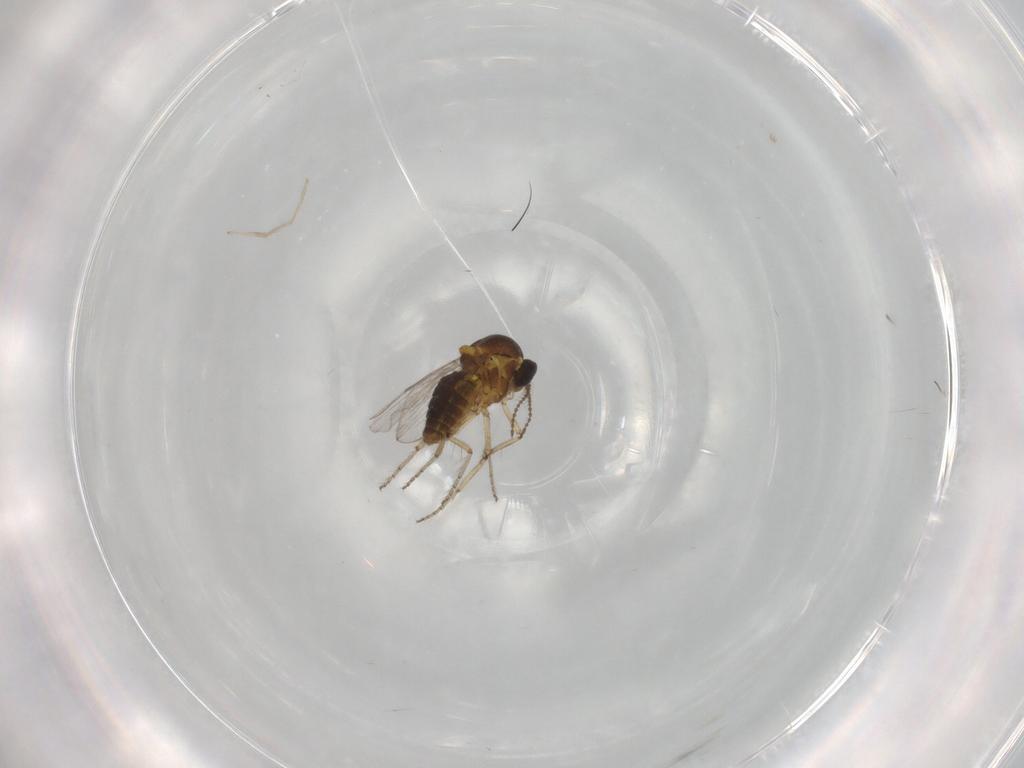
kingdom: Animalia
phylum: Arthropoda
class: Insecta
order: Diptera
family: Ceratopogonidae
